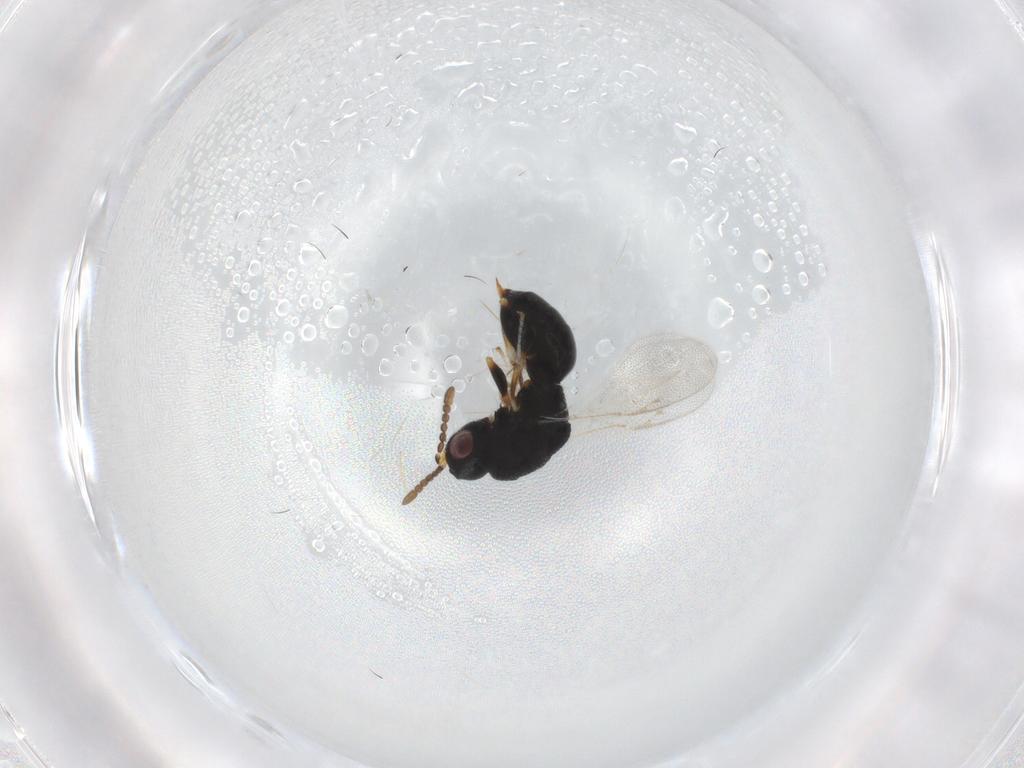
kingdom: Animalia
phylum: Arthropoda
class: Insecta
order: Hymenoptera
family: Eurytomidae
